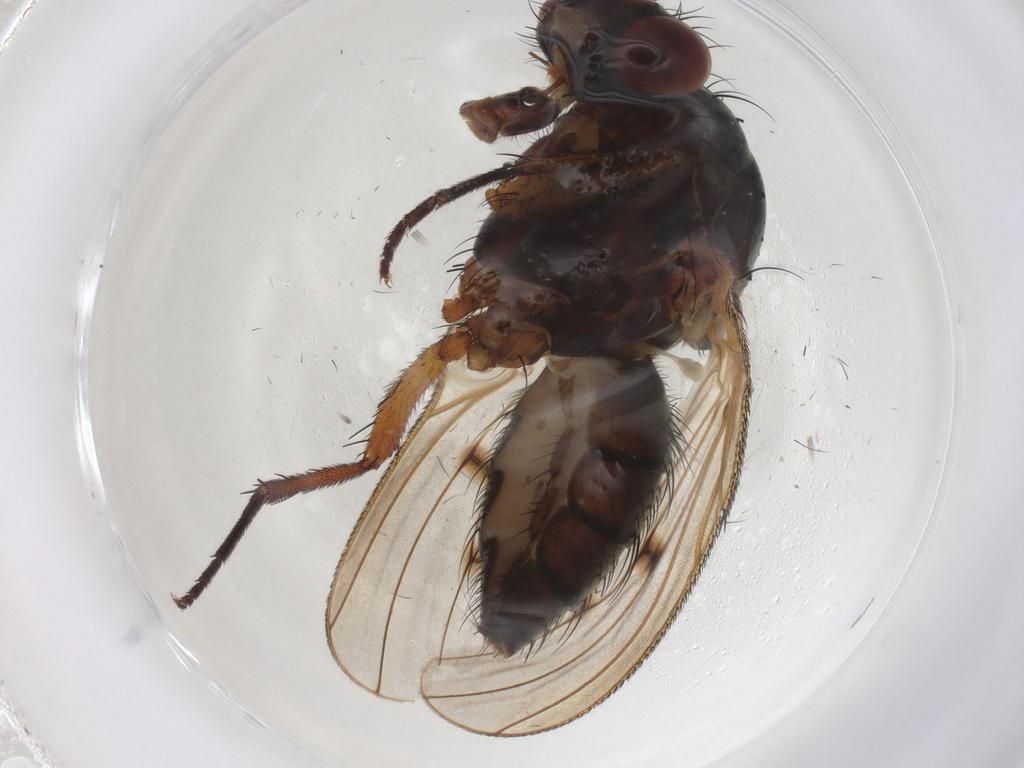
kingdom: Animalia
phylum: Arthropoda
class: Insecta
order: Diptera
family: Anthomyiidae
